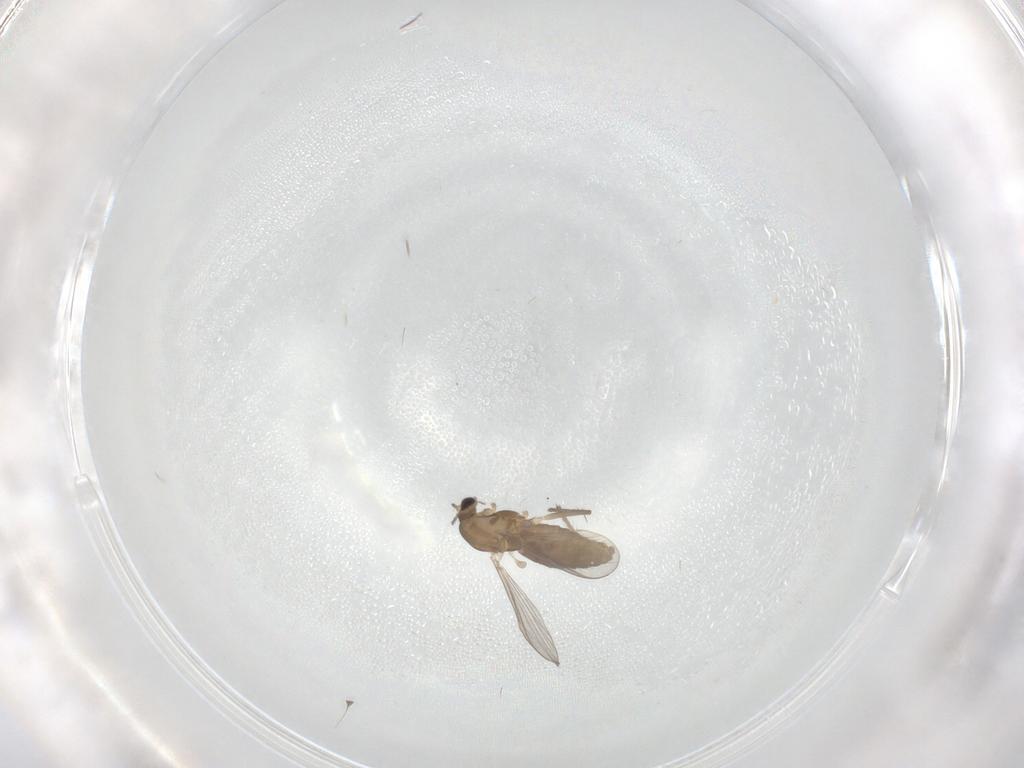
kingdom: Animalia
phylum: Arthropoda
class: Insecta
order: Diptera
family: Chironomidae
